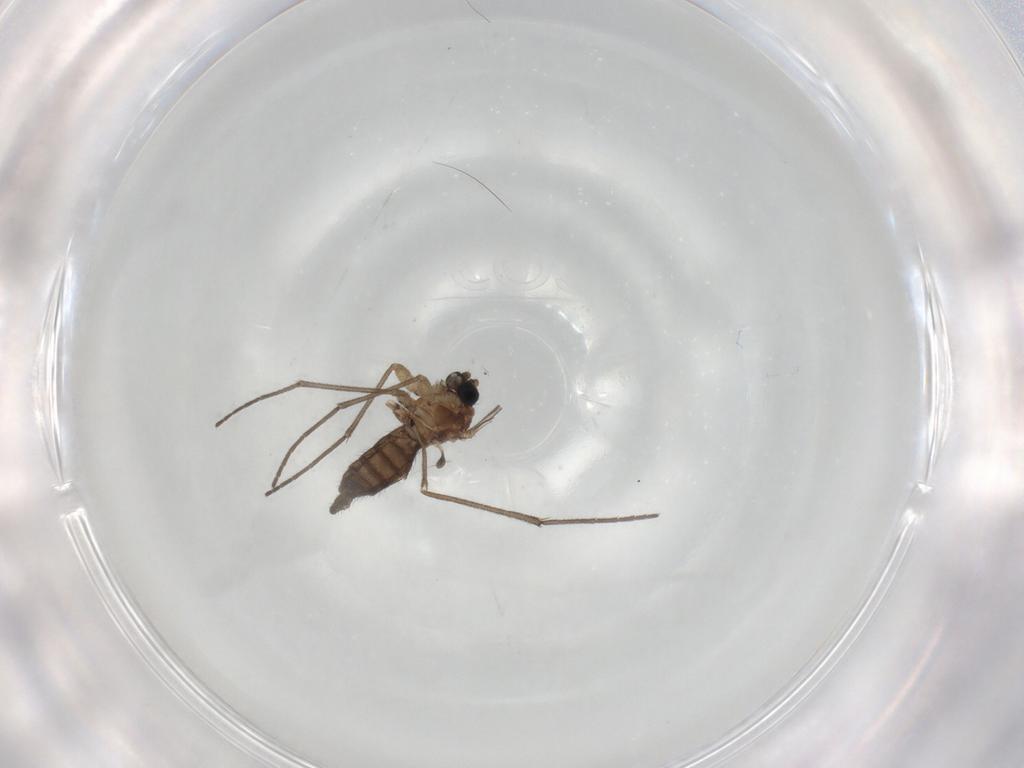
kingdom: Animalia
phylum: Arthropoda
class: Insecta
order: Diptera
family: Sciaridae
